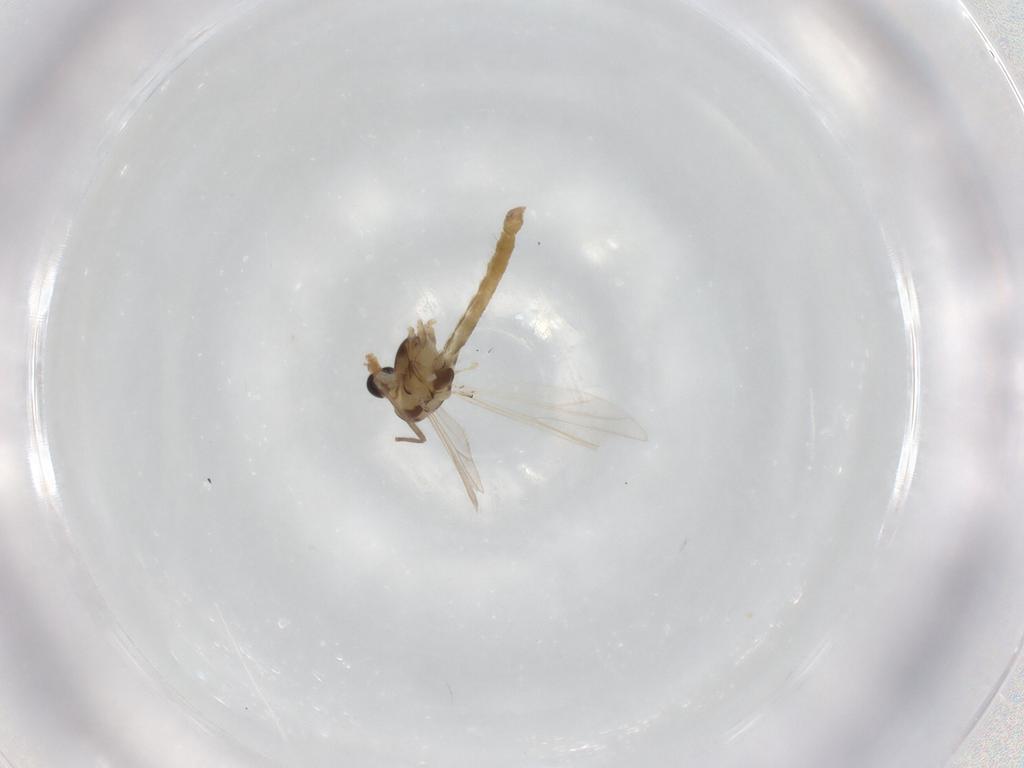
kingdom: Animalia
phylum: Arthropoda
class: Insecta
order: Diptera
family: Chironomidae
